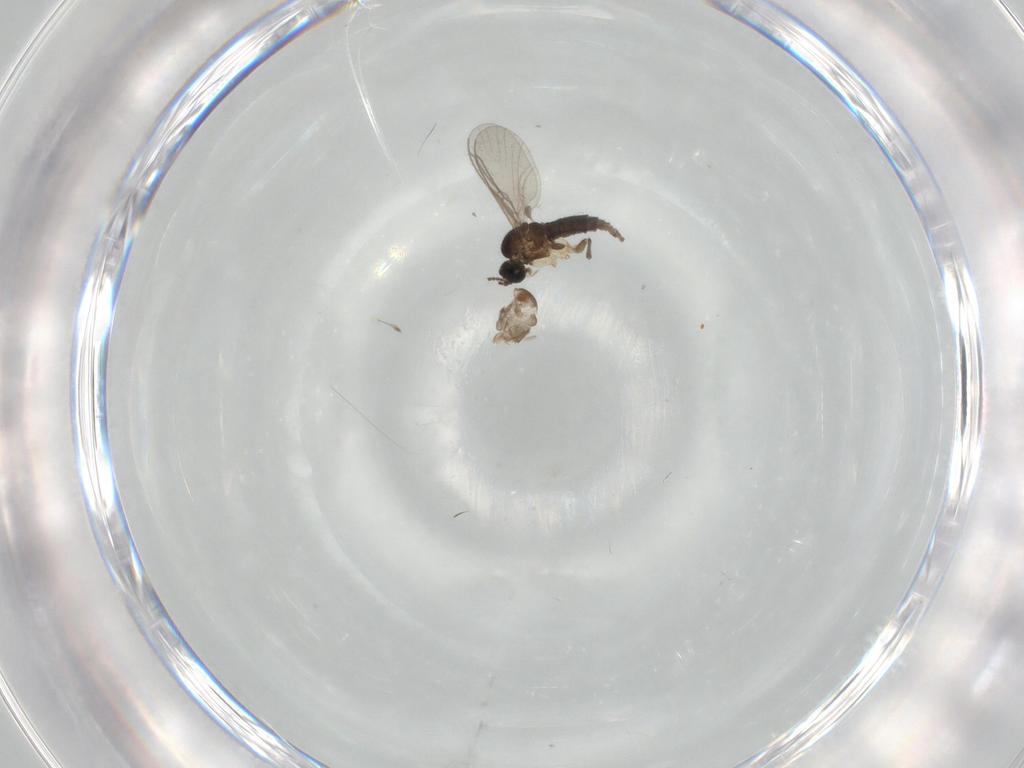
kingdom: Animalia
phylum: Arthropoda
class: Insecta
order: Diptera
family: Sciaridae
